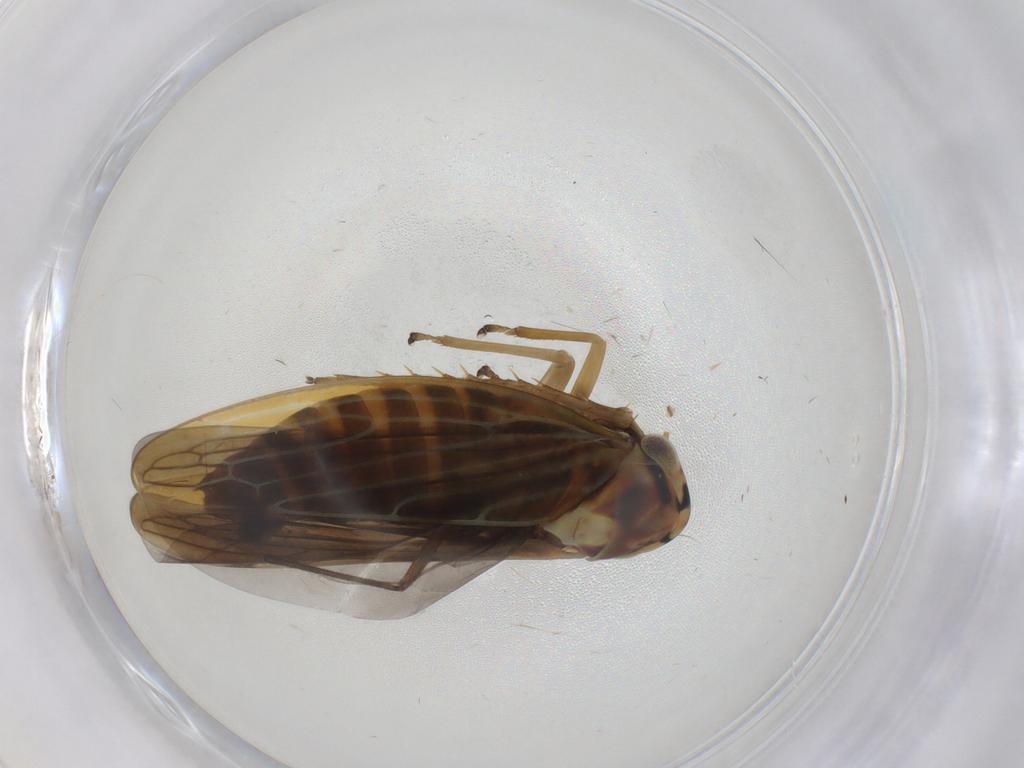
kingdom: Animalia
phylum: Arthropoda
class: Insecta
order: Hemiptera
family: Cicadellidae
